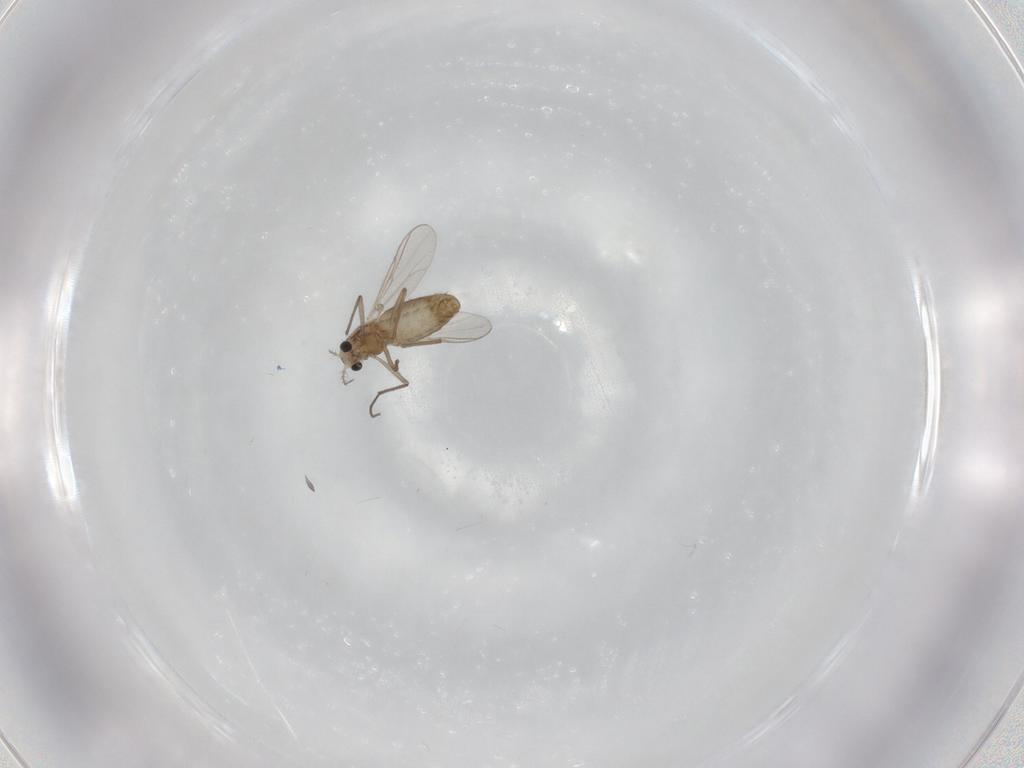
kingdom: Animalia
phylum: Arthropoda
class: Insecta
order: Diptera
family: Chironomidae
